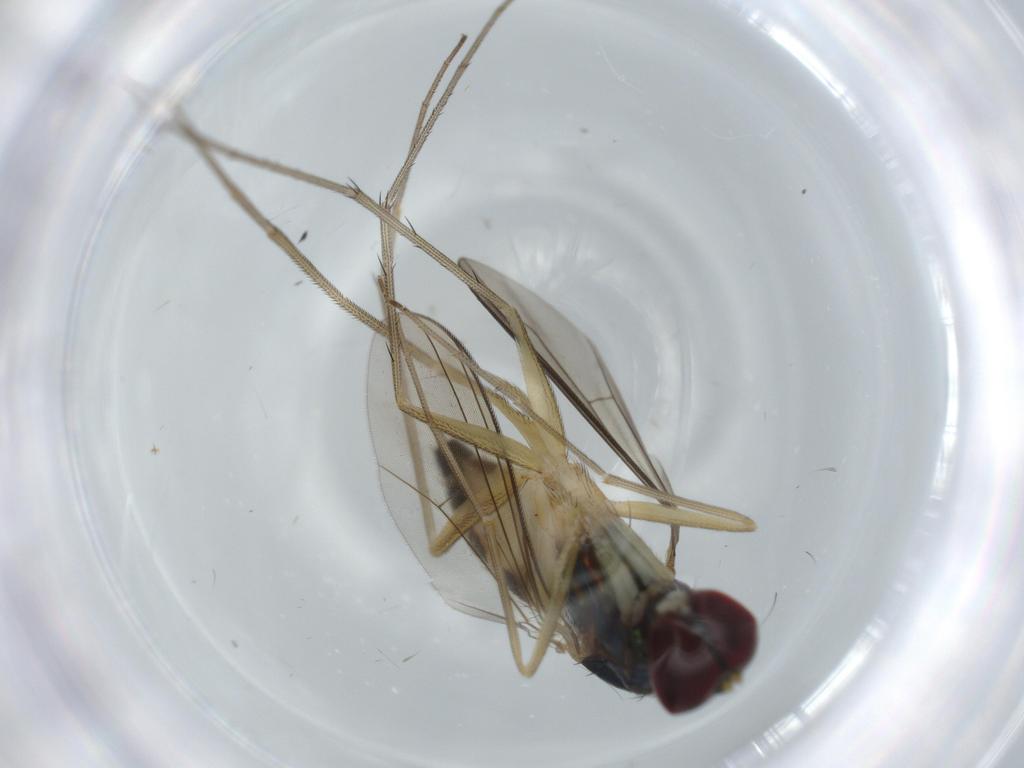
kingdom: Animalia
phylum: Arthropoda
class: Insecta
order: Diptera
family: Dolichopodidae
